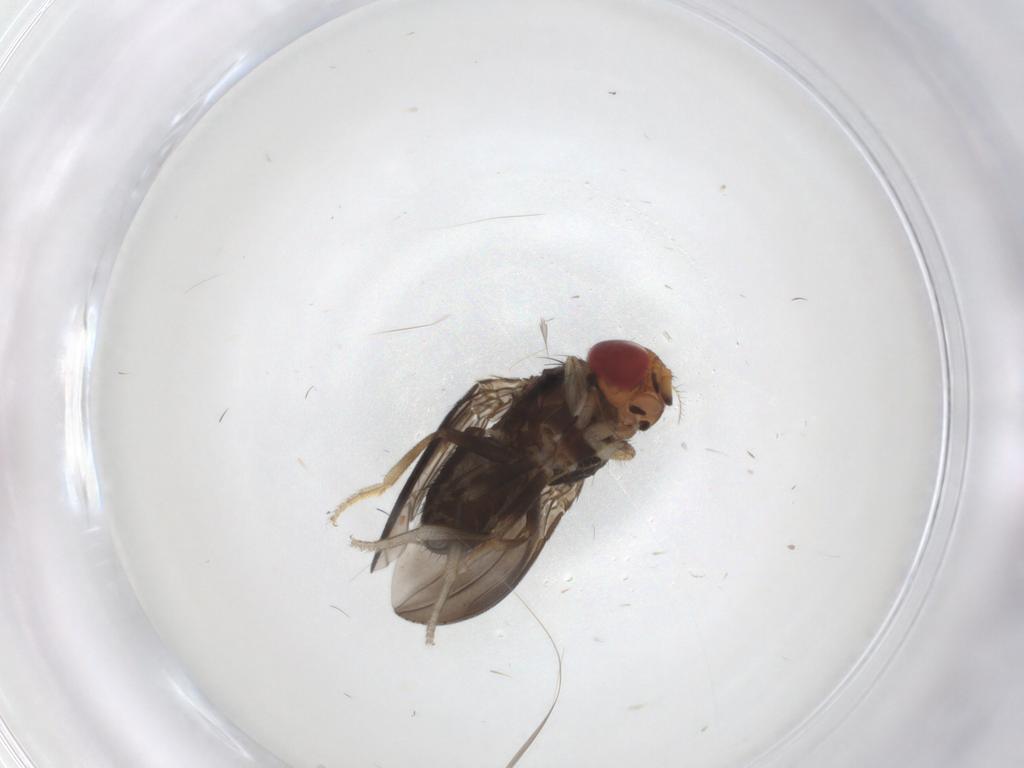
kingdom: Animalia
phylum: Arthropoda
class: Insecta
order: Diptera
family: Drosophilidae
